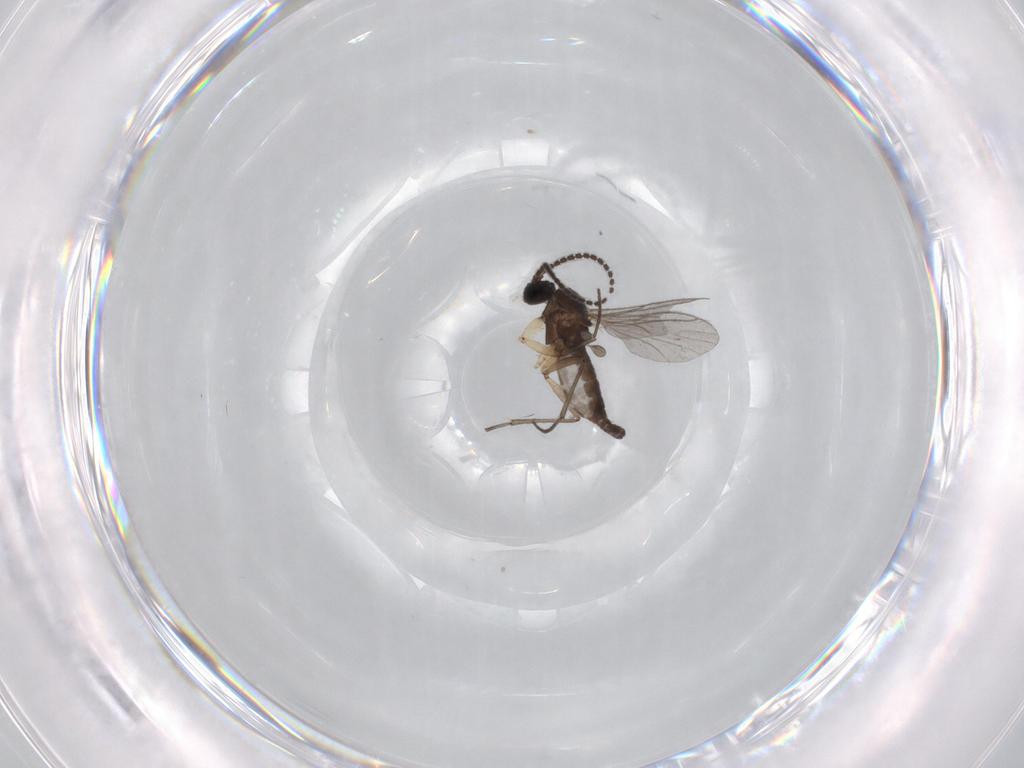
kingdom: Animalia
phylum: Arthropoda
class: Insecta
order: Diptera
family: Sciaridae
